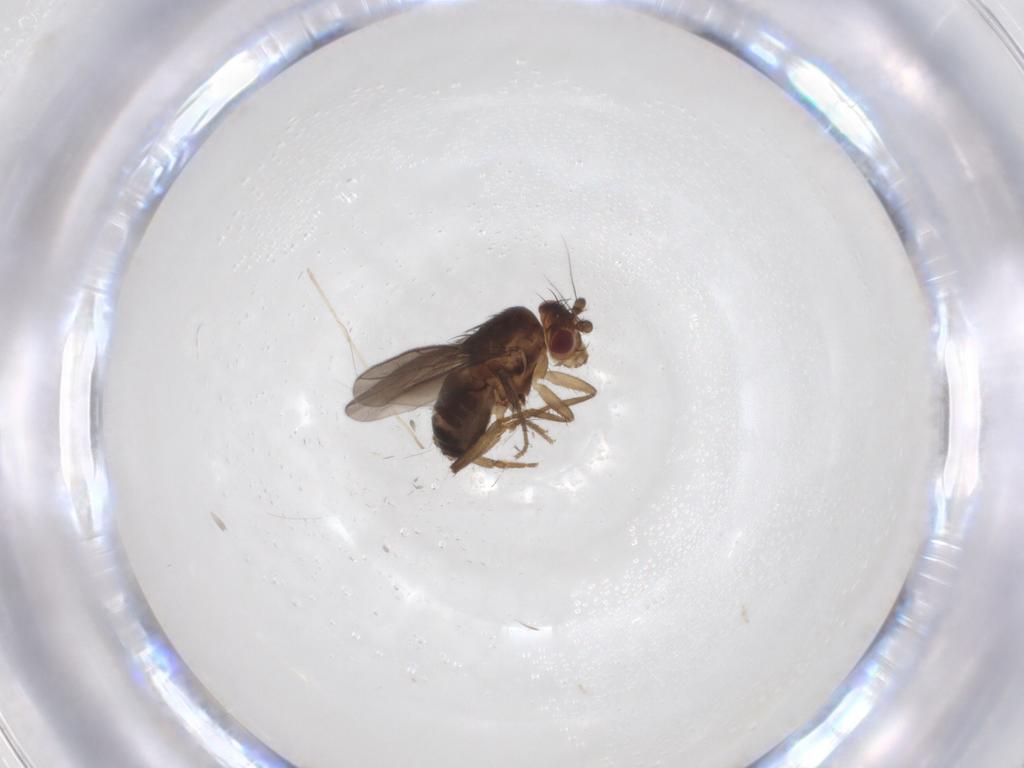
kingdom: Animalia
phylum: Arthropoda
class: Insecta
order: Diptera
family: Sphaeroceridae
